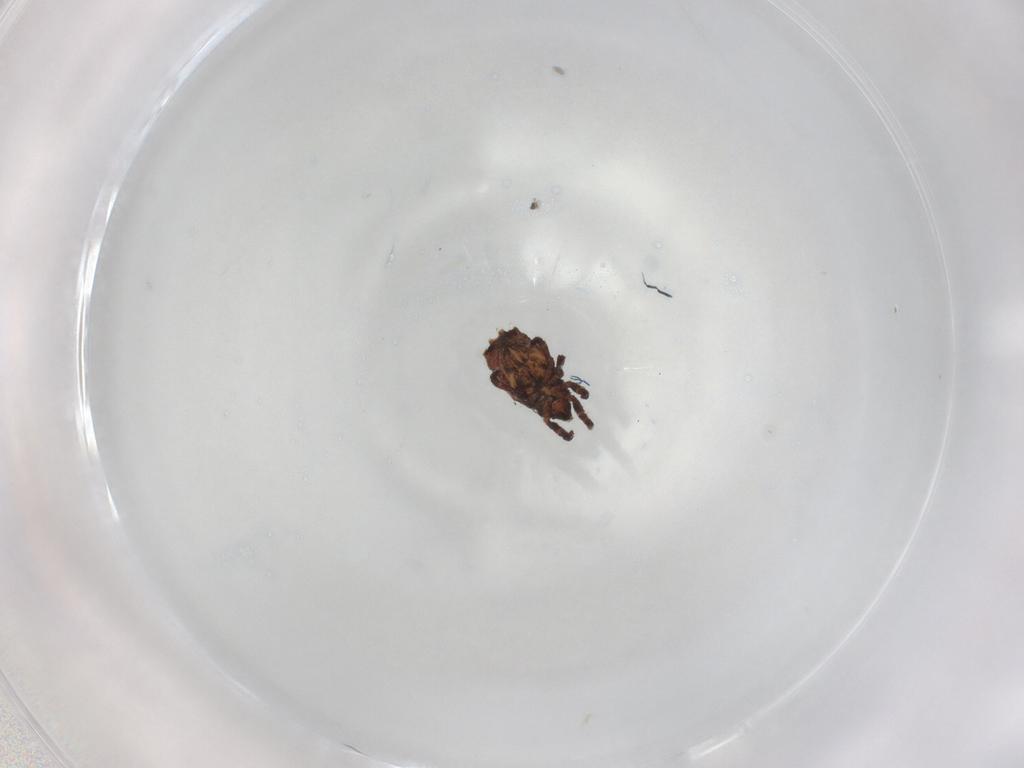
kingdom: Animalia
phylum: Arthropoda
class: Arachnida
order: Sarcoptiformes
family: Crotoniidae
